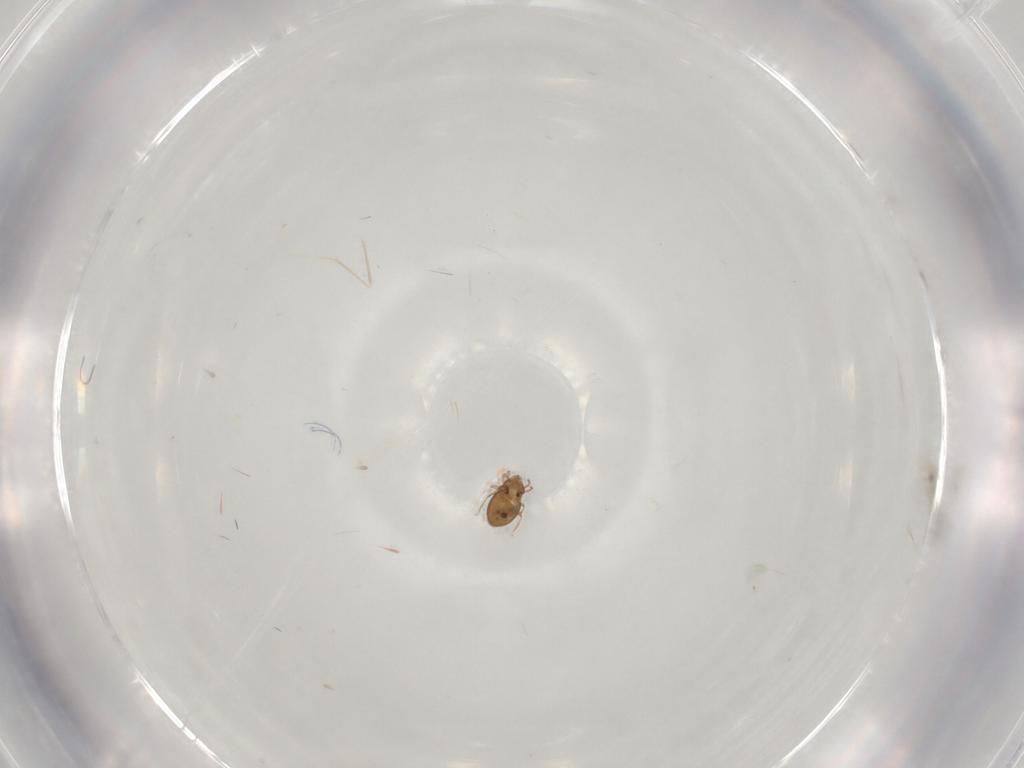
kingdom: Animalia
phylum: Arthropoda
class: Arachnida
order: Sarcoptiformes
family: Oribatulidae
